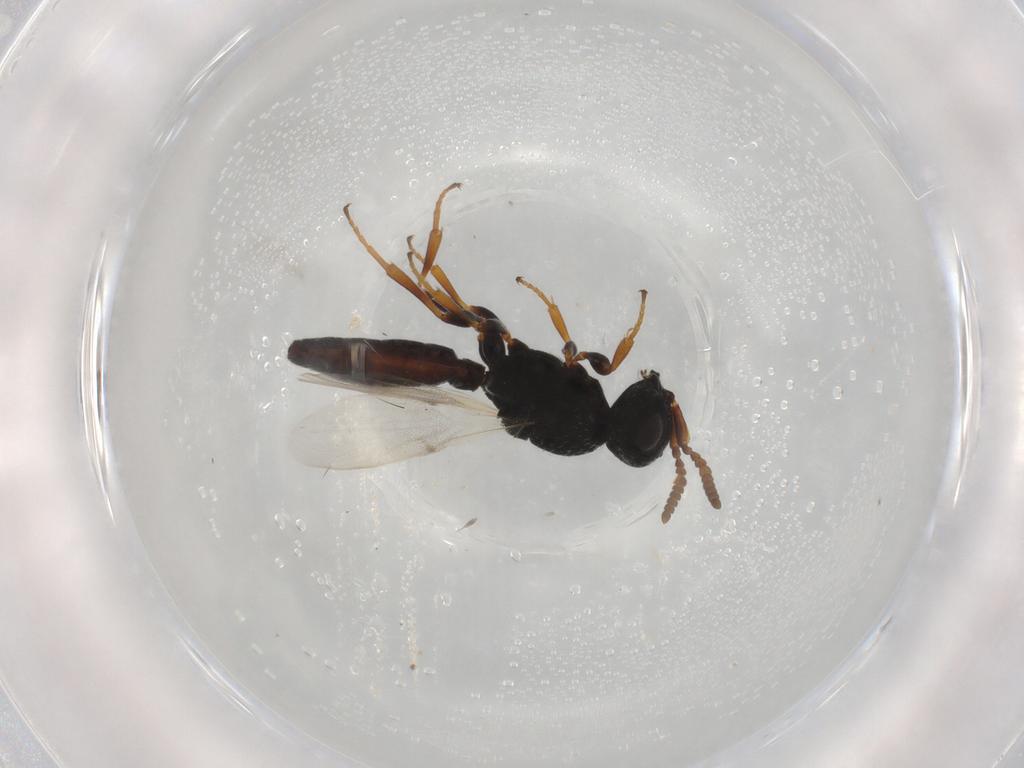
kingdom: Animalia
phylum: Arthropoda
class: Insecta
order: Hymenoptera
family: Scelionidae
